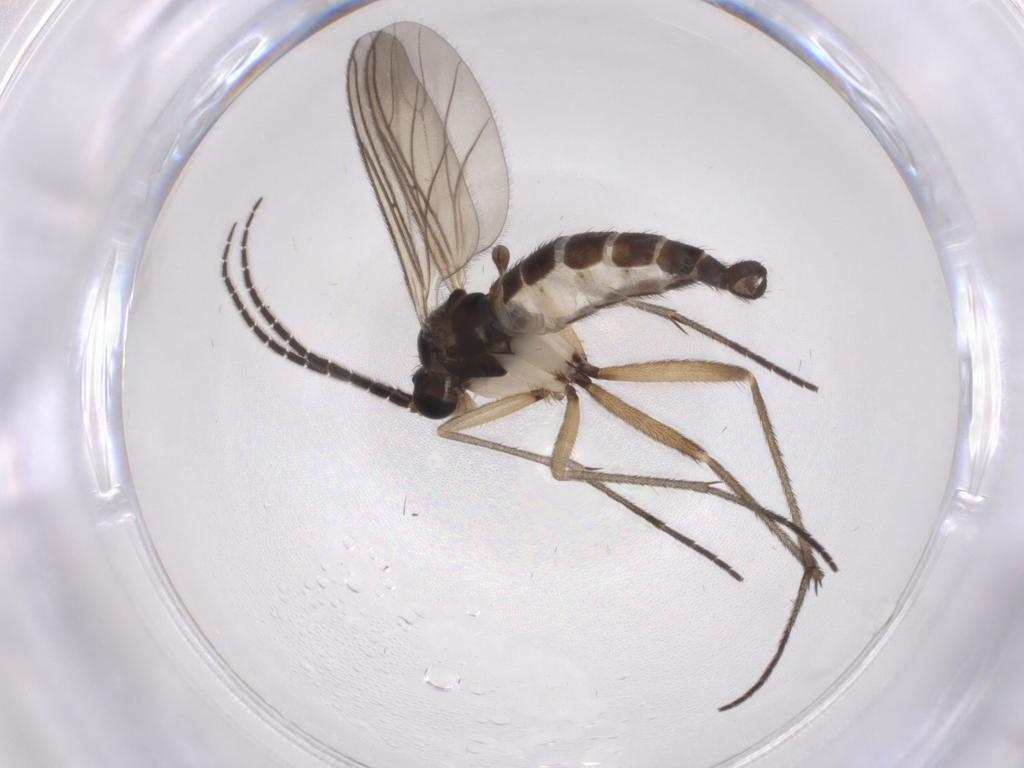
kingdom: Animalia
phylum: Arthropoda
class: Insecta
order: Diptera
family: Sciaridae
